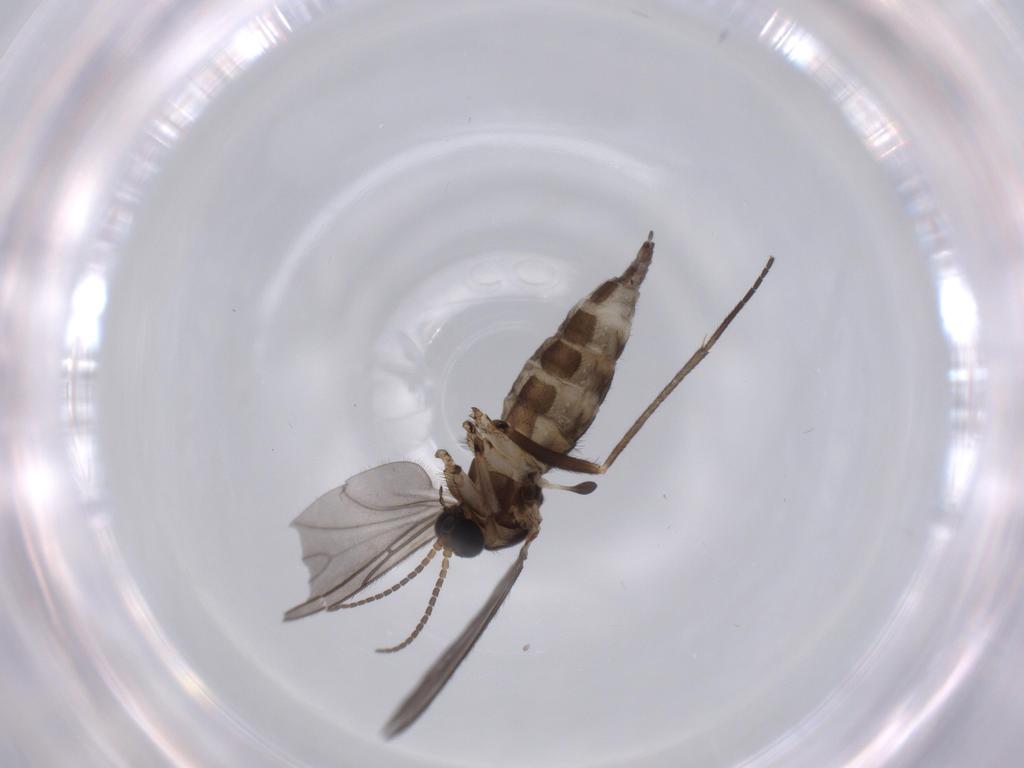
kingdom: Animalia
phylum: Arthropoda
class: Insecta
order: Diptera
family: Sciaridae
